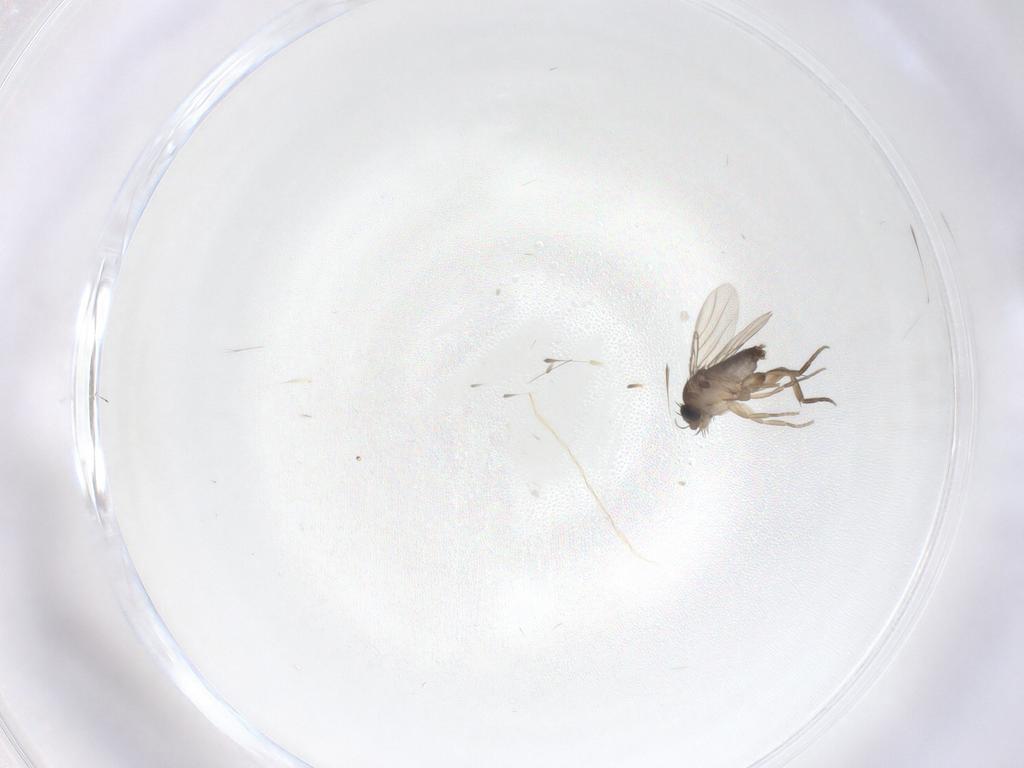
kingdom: Animalia
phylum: Arthropoda
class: Insecta
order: Diptera
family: Phoridae
